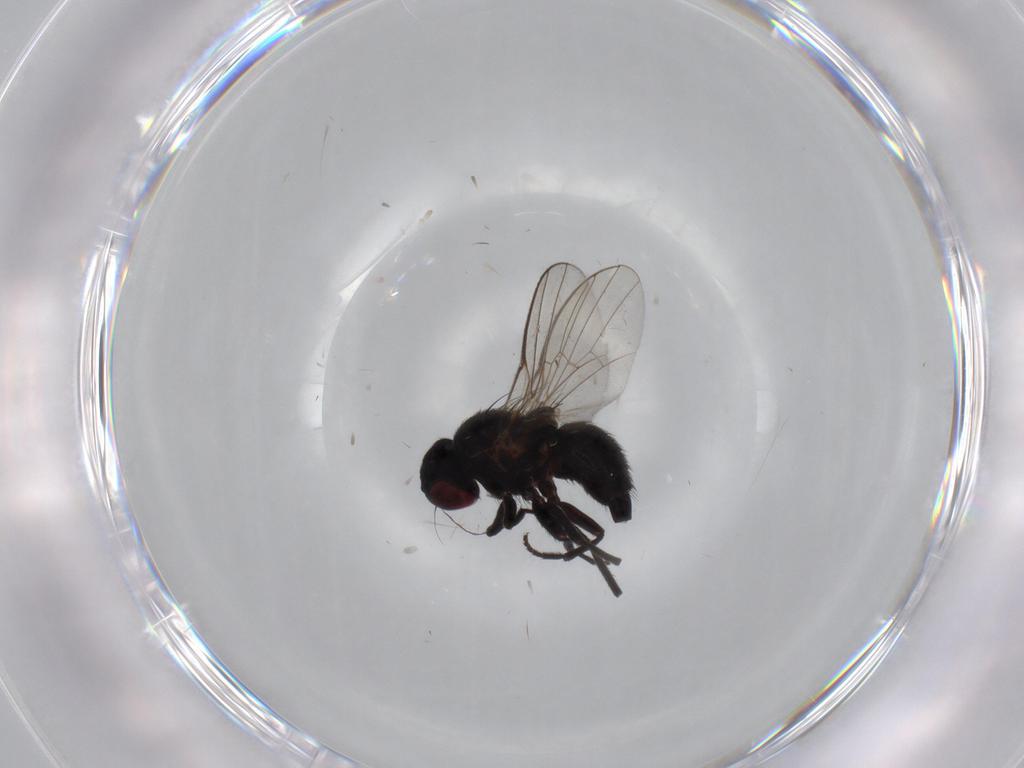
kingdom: Animalia
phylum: Arthropoda
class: Insecta
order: Diptera
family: Agromyzidae
